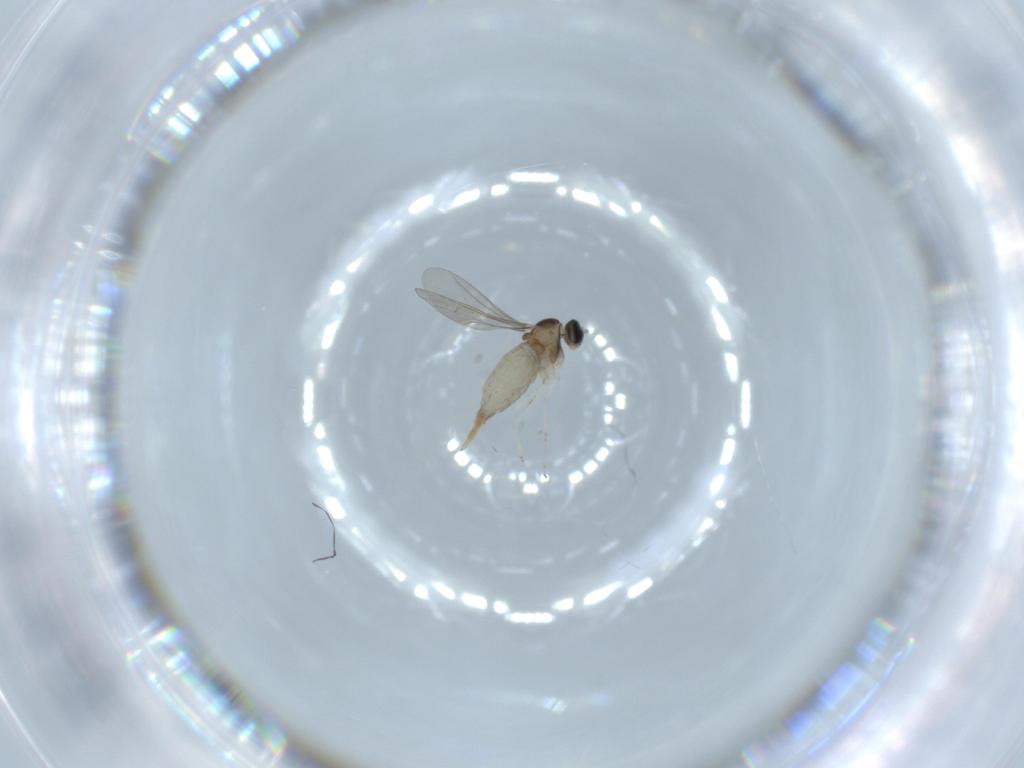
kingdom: Animalia
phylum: Arthropoda
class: Insecta
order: Diptera
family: Cecidomyiidae
